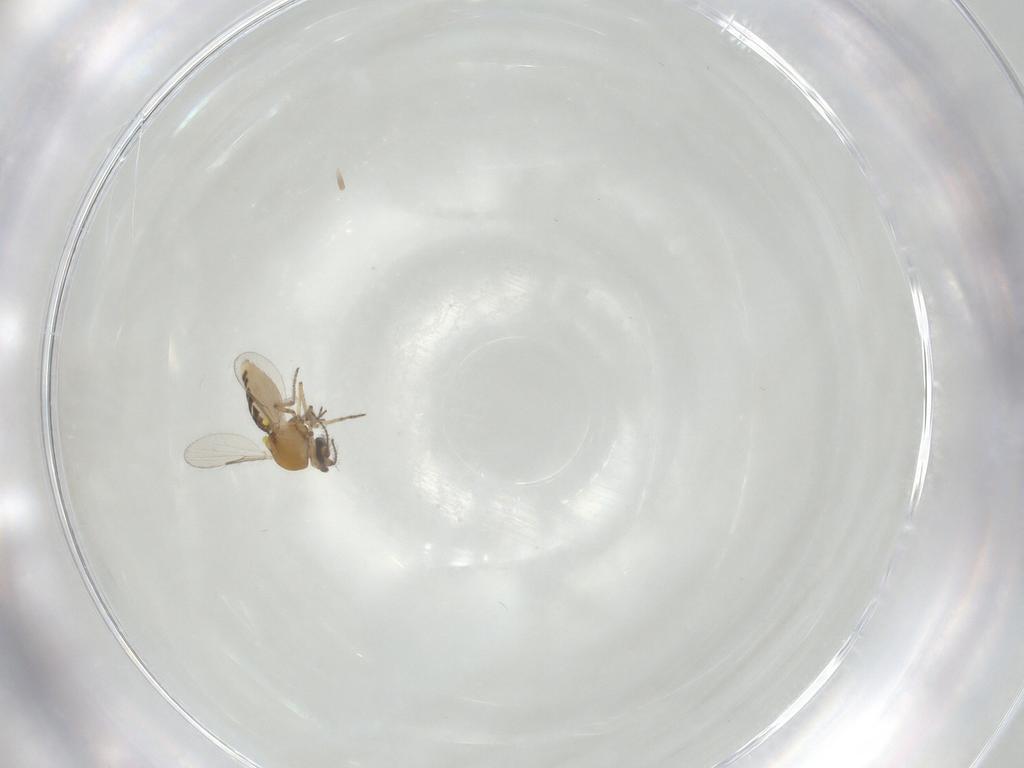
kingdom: Animalia
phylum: Arthropoda
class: Insecta
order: Diptera
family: Ceratopogonidae
